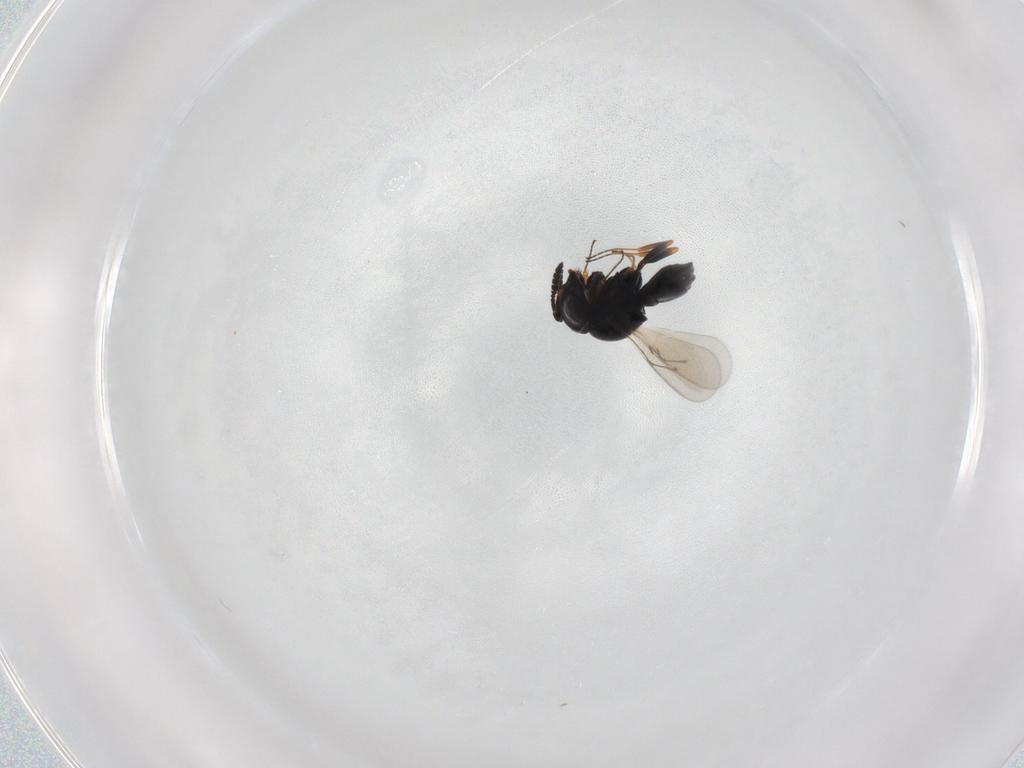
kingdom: Animalia
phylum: Arthropoda
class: Insecta
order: Hymenoptera
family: Scelionidae
